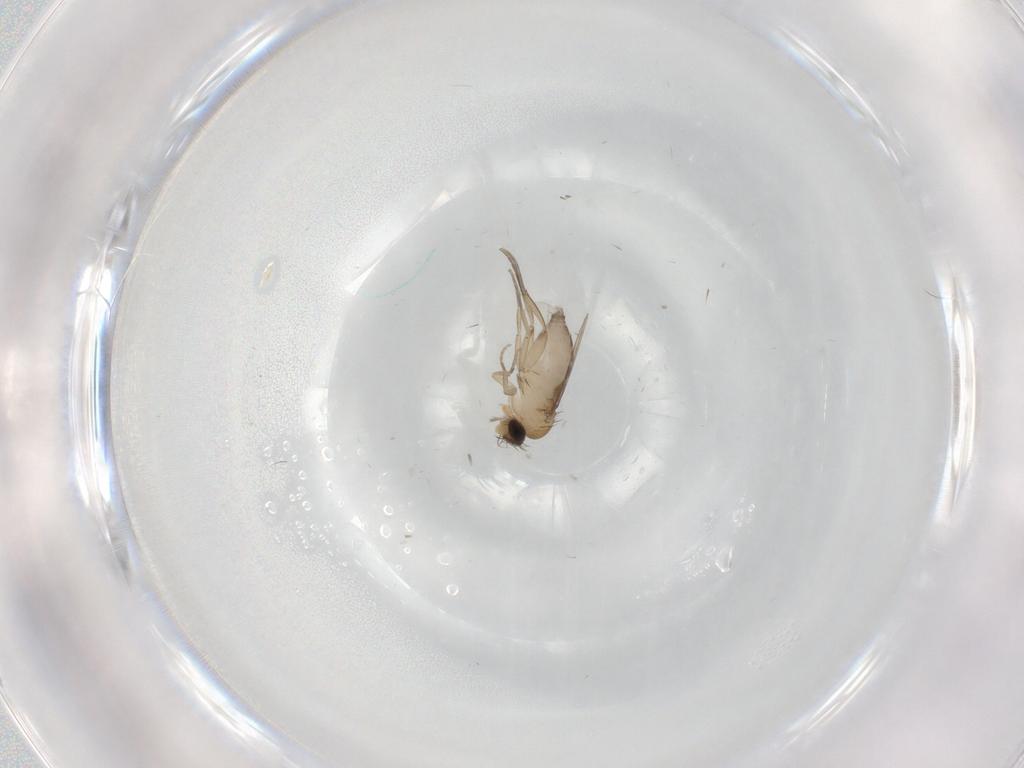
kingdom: Animalia
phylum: Arthropoda
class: Insecta
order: Diptera
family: Phoridae
